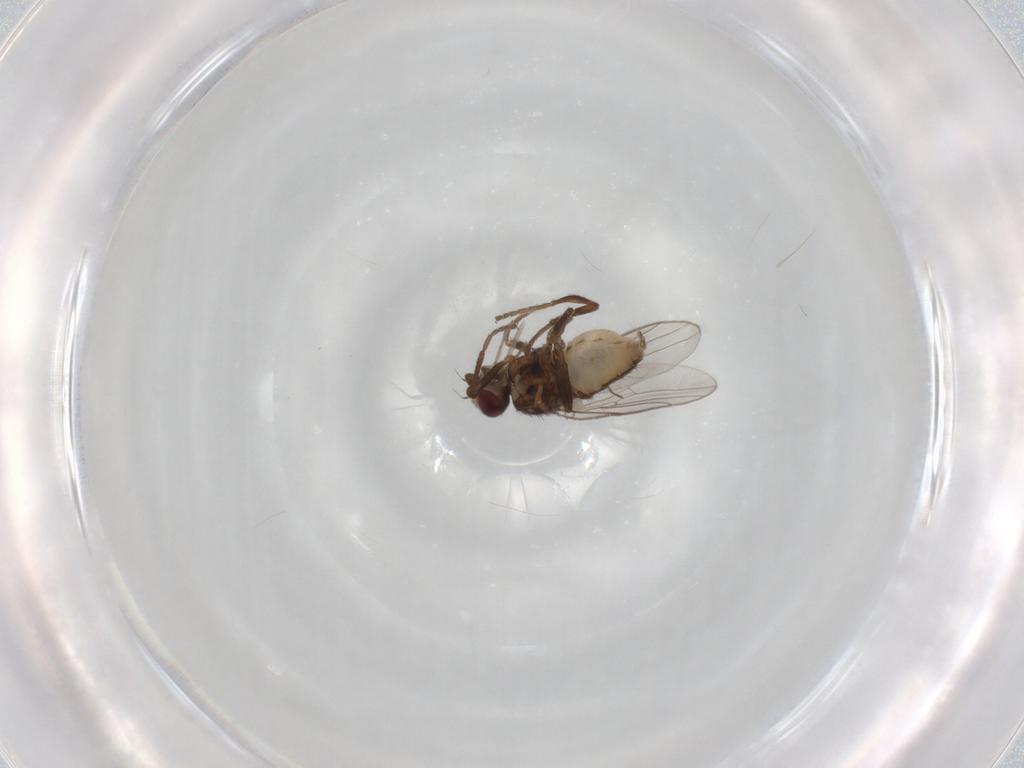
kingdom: Animalia
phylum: Arthropoda
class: Insecta
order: Diptera
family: Chloropidae
